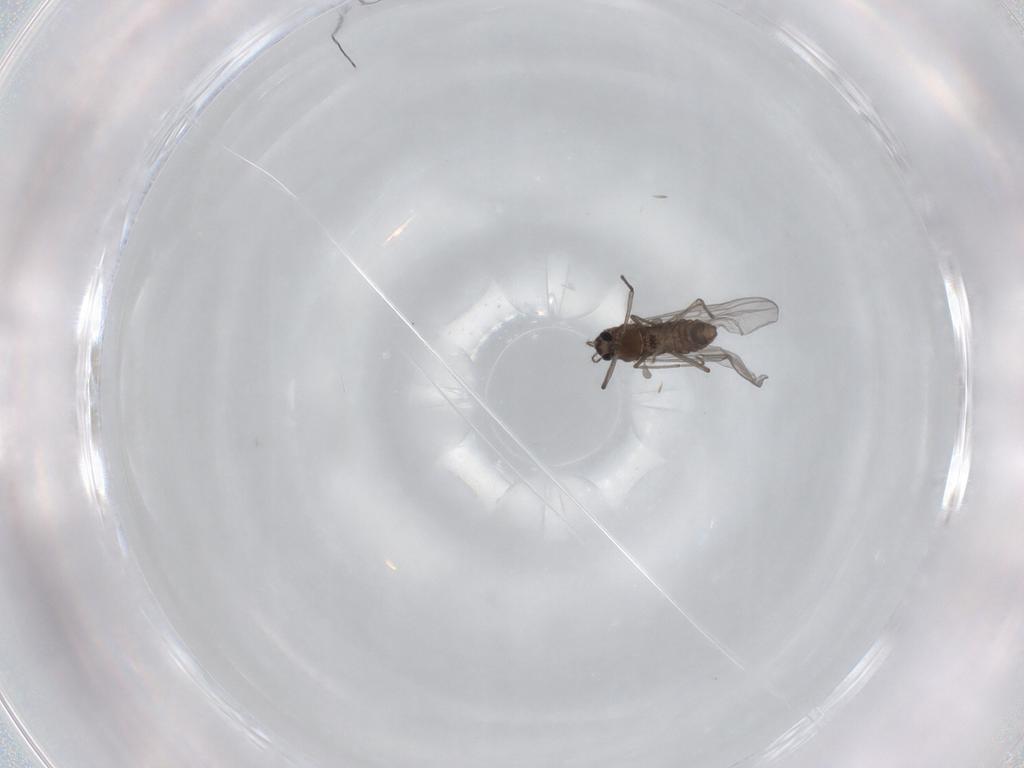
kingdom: Animalia
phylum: Arthropoda
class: Insecta
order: Diptera
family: Chironomidae
